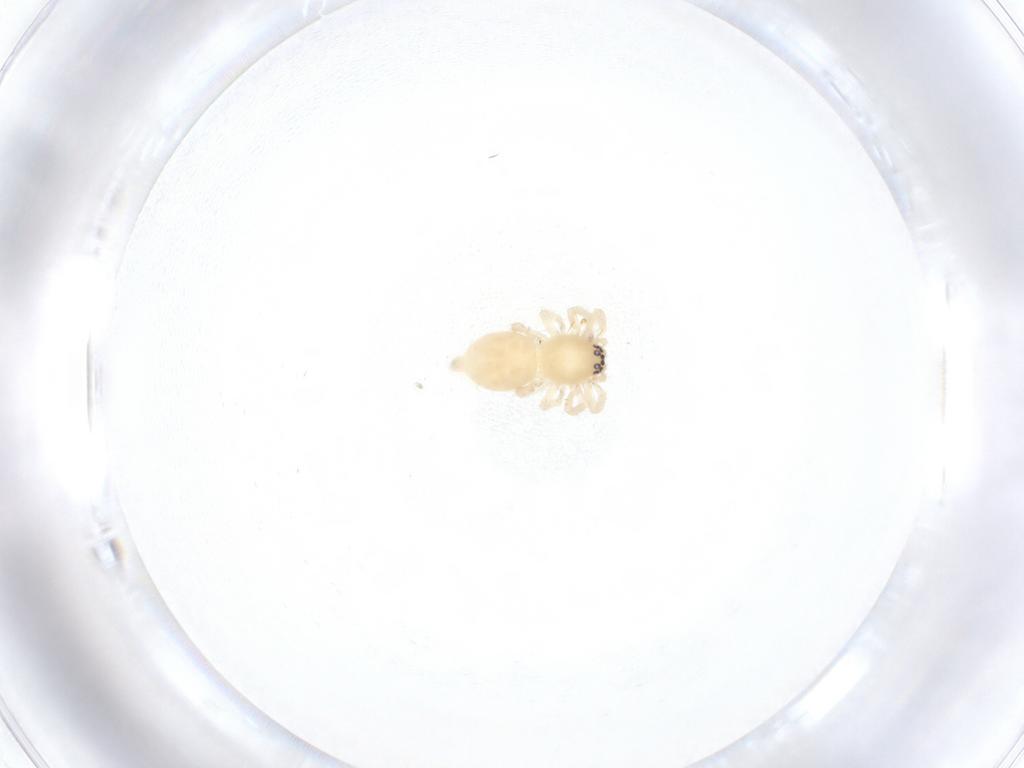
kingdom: Animalia
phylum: Arthropoda
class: Arachnida
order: Araneae
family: Clubionidae
